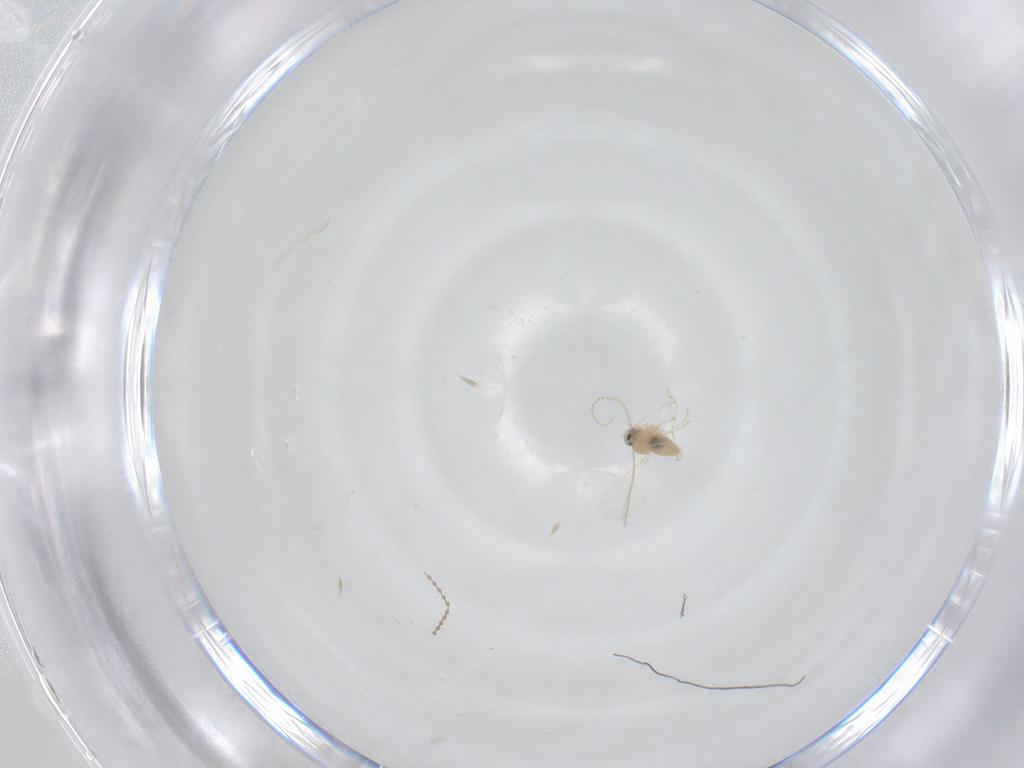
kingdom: Animalia
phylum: Arthropoda
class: Insecta
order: Diptera
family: Cecidomyiidae
